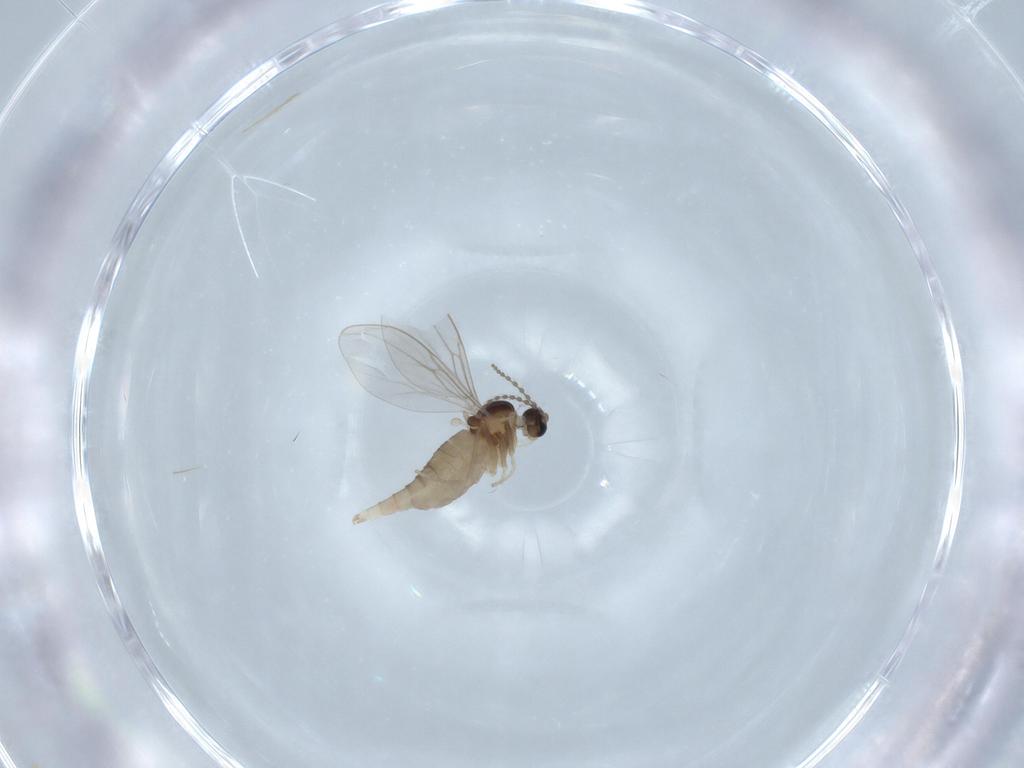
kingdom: Animalia
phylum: Arthropoda
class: Insecta
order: Diptera
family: Cecidomyiidae
